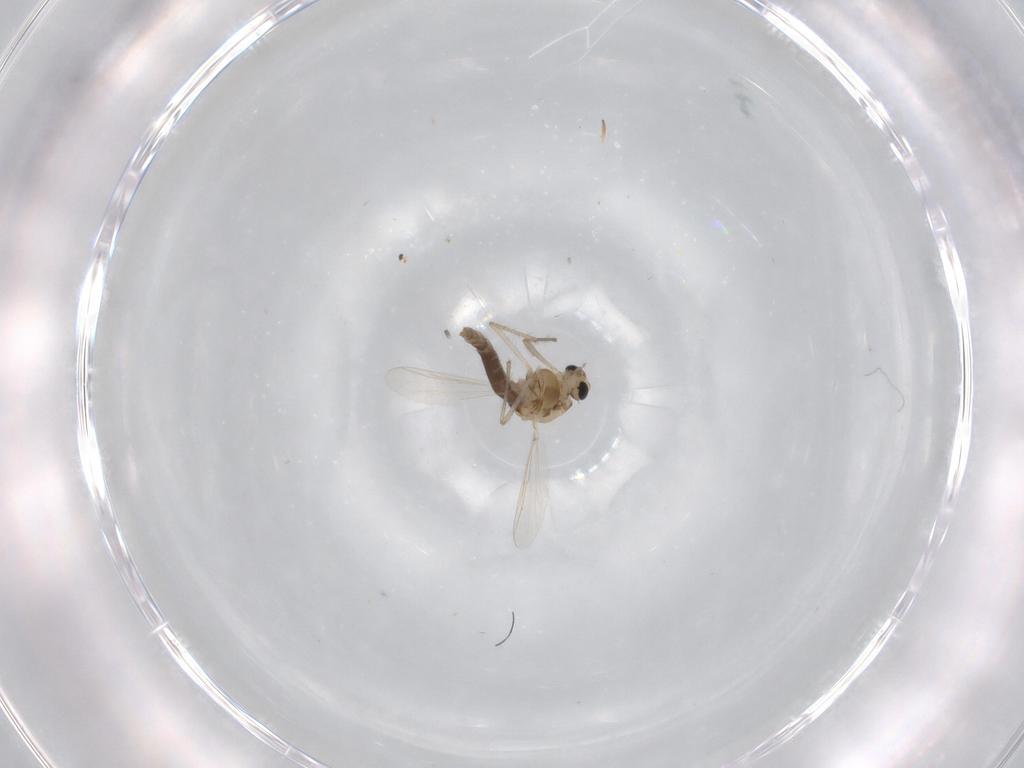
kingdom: Animalia
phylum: Arthropoda
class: Insecta
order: Diptera
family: Chironomidae
